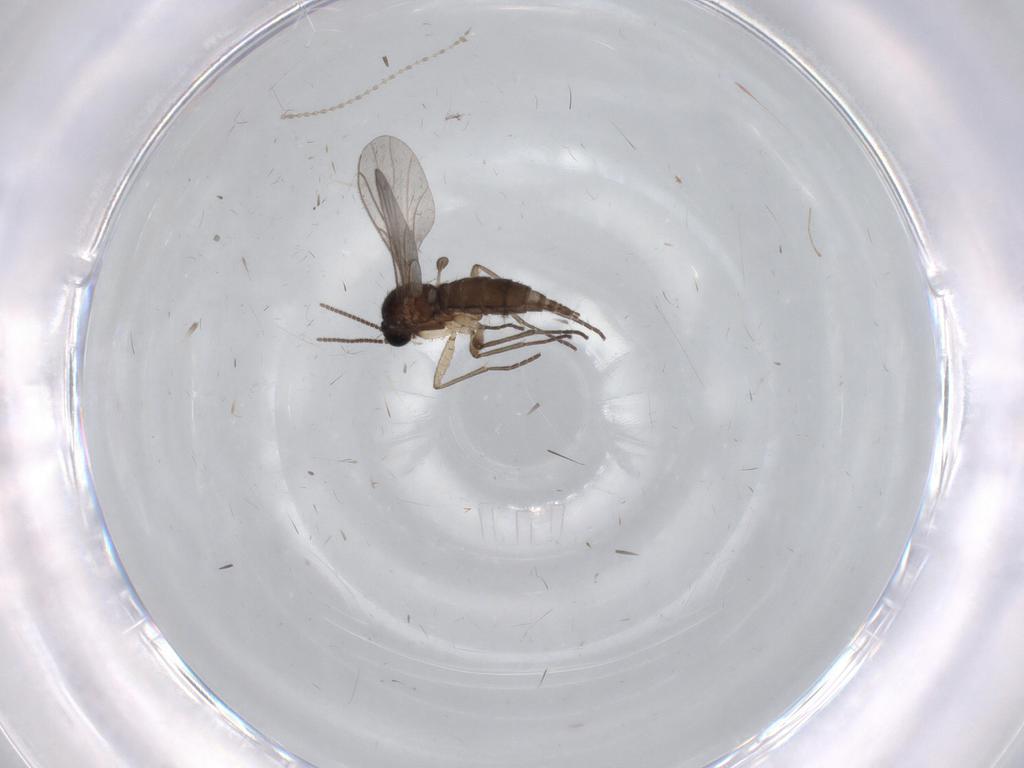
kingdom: Animalia
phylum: Arthropoda
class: Insecta
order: Diptera
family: Cecidomyiidae
